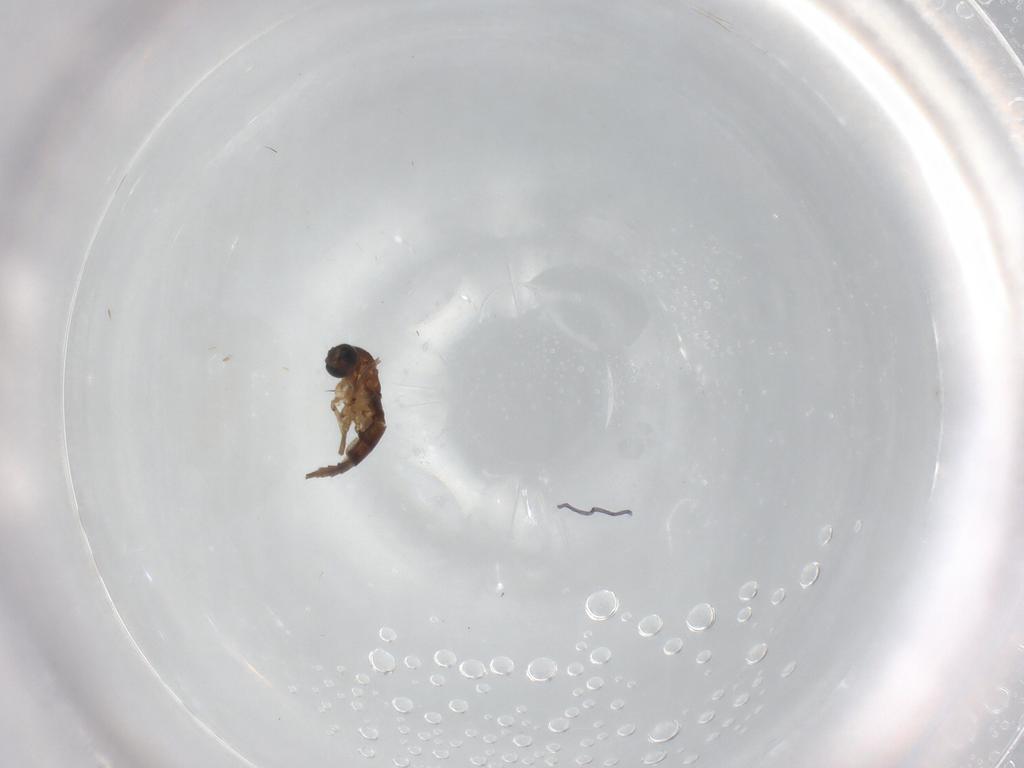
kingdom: Animalia
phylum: Arthropoda
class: Insecta
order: Diptera
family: Sciaridae
